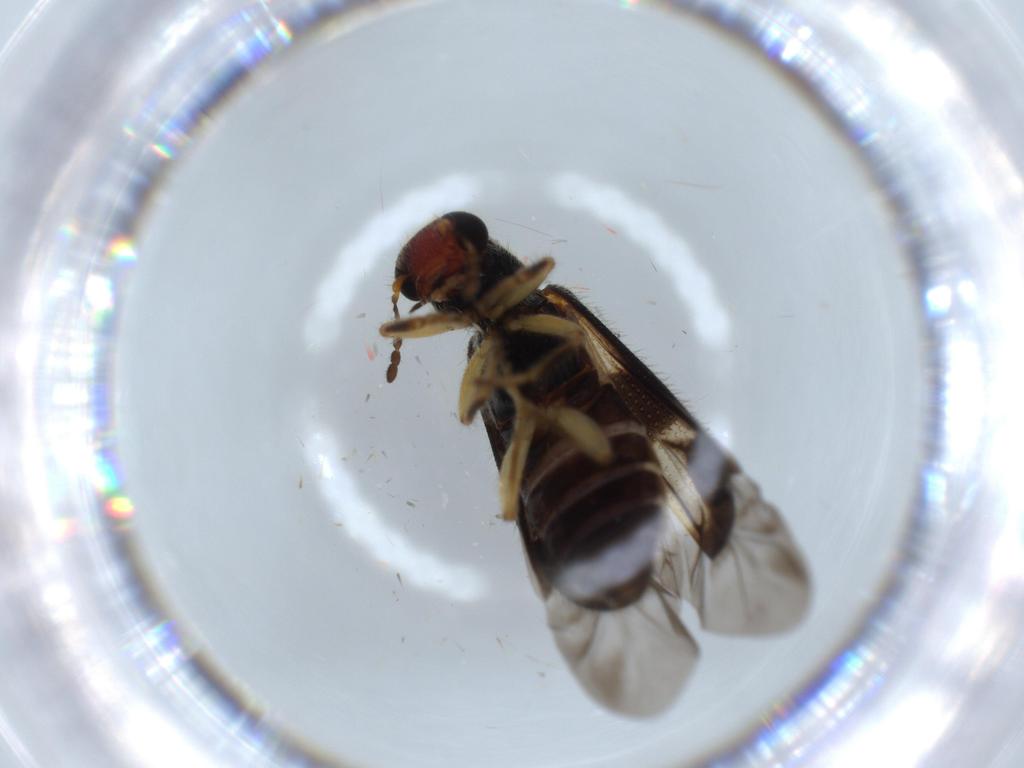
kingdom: Animalia
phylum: Arthropoda
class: Insecta
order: Coleoptera
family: Cleridae
